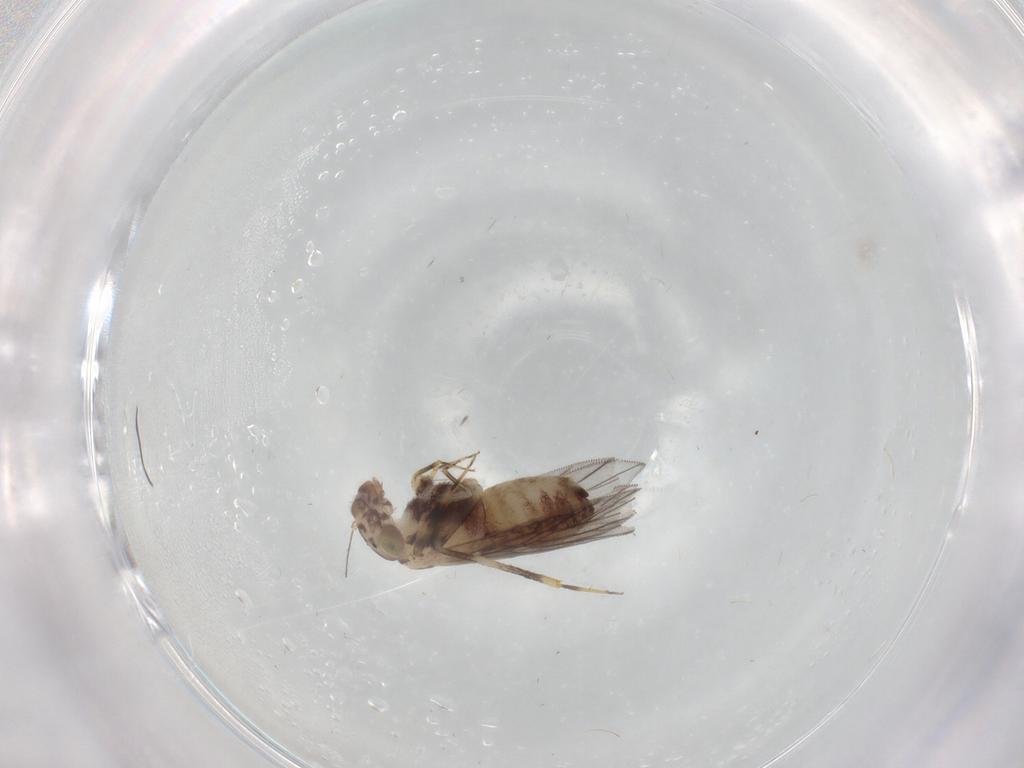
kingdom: Animalia
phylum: Arthropoda
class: Insecta
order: Psocodea
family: Lepidopsocidae
